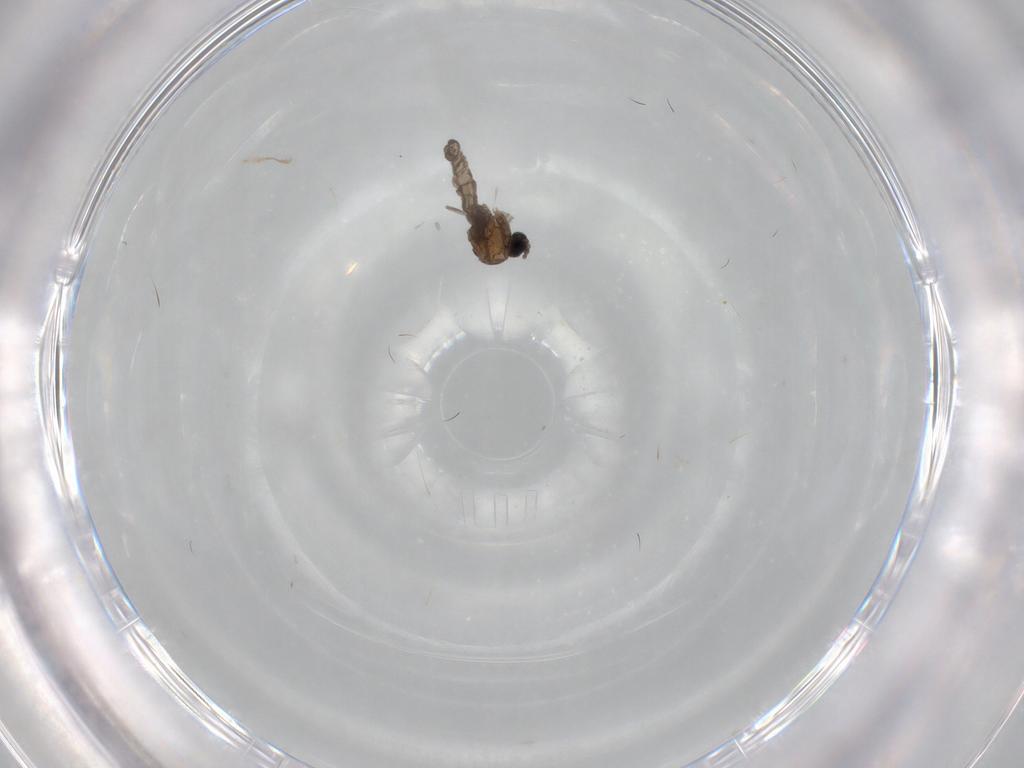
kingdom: Animalia
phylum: Arthropoda
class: Insecta
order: Diptera
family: Sciaridae
